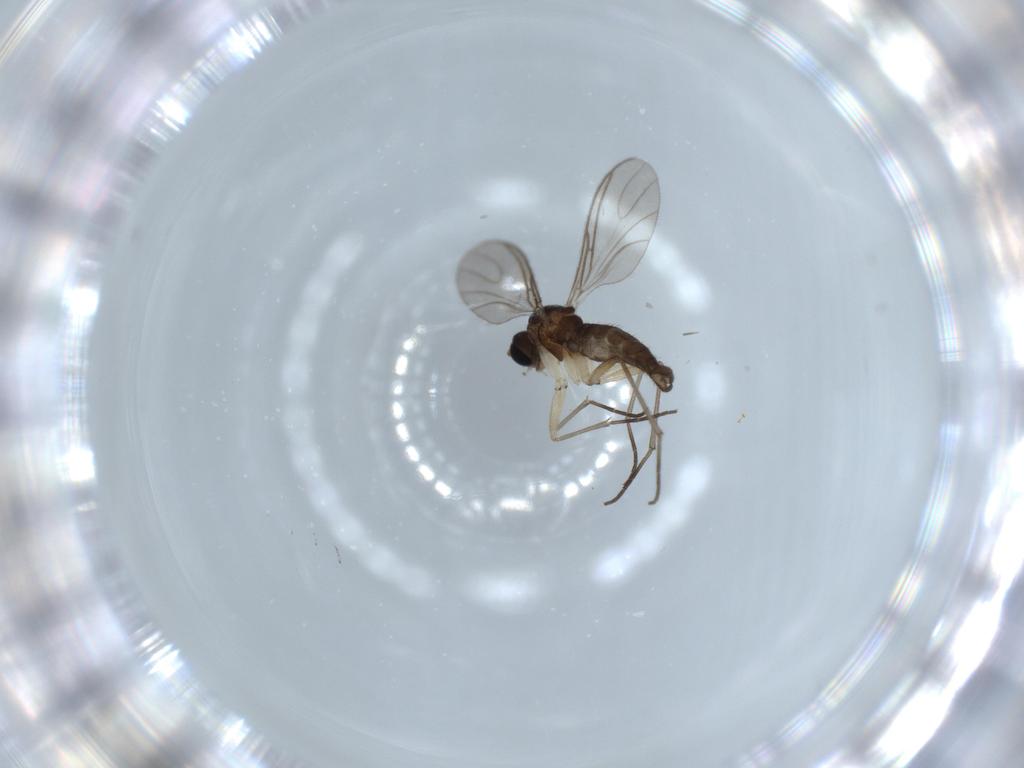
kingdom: Animalia
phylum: Arthropoda
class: Insecta
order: Diptera
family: Sciaridae
